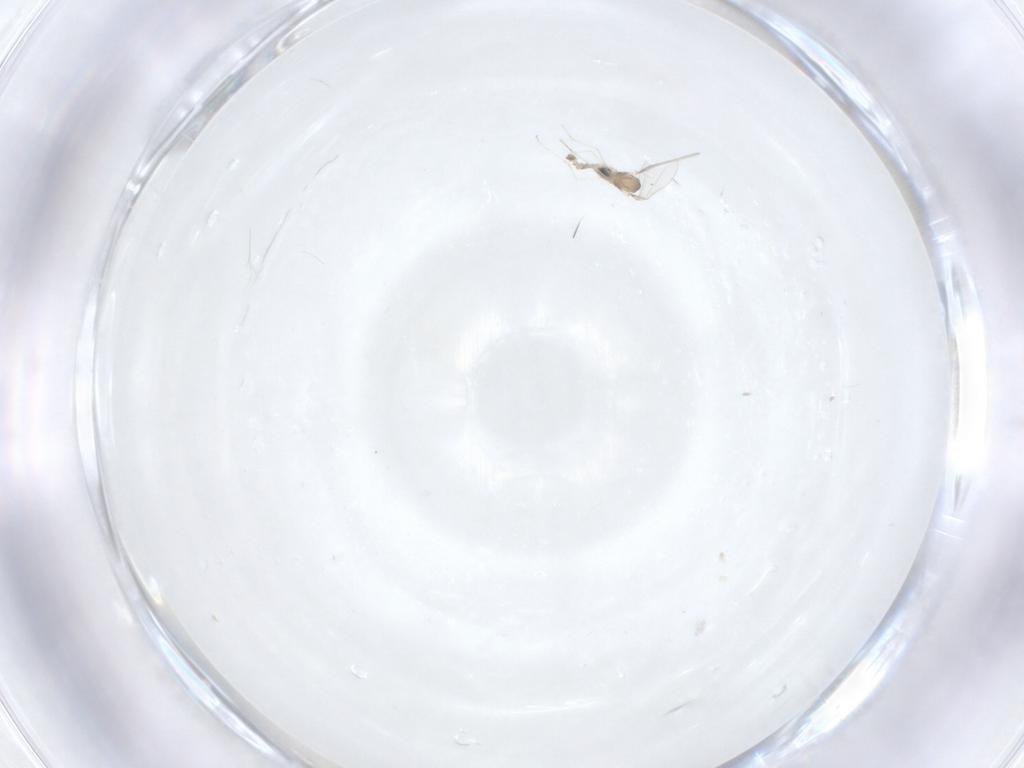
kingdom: Animalia
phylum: Arthropoda
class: Insecta
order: Diptera
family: Cecidomyiidae
